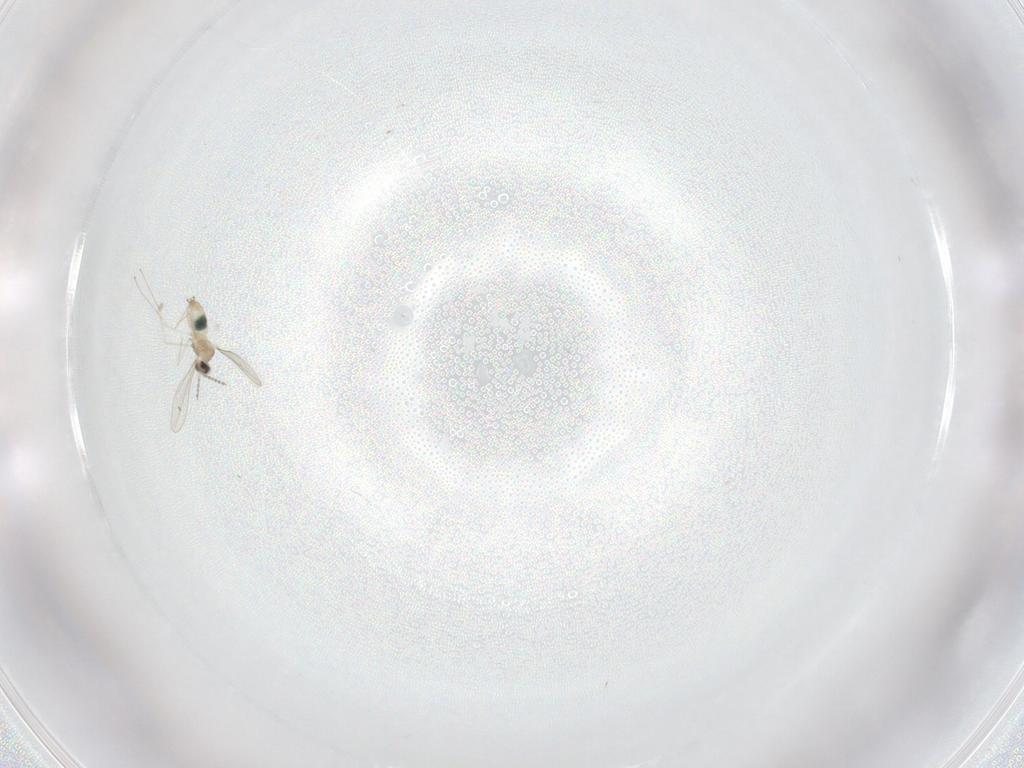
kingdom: Animalia
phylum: Arthropoda
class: Insecta
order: Diptera
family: Cecidomyiidae
